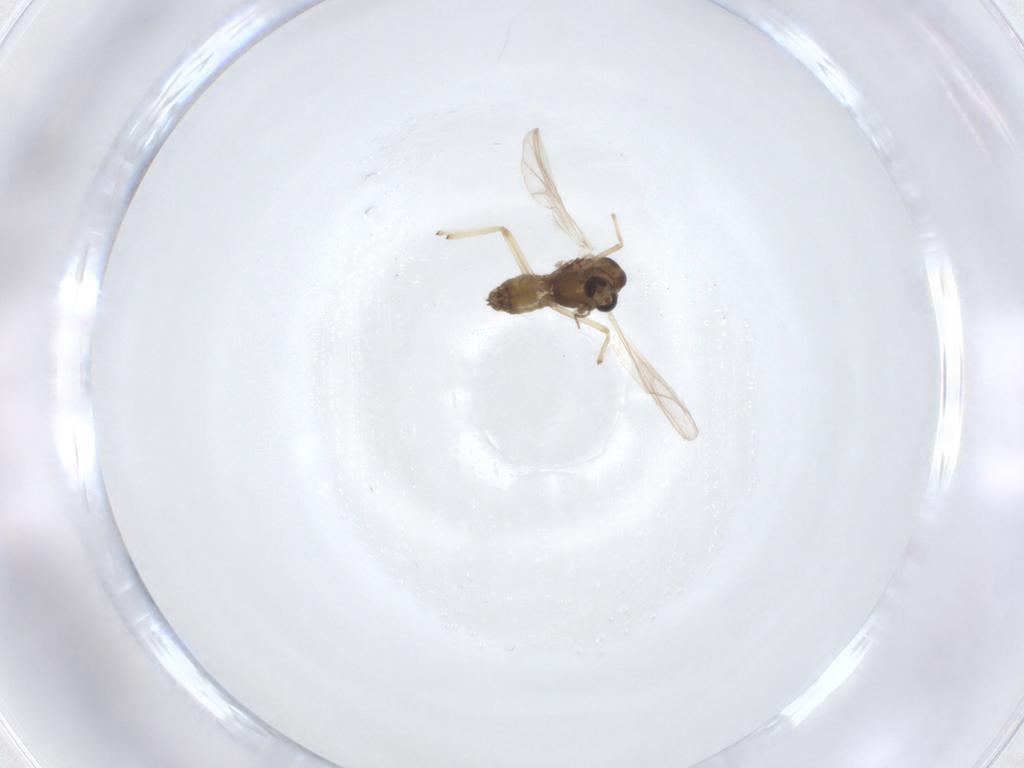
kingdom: Animalia
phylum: Arthropoda
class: Insecta
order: Diptera
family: Chironomidae
